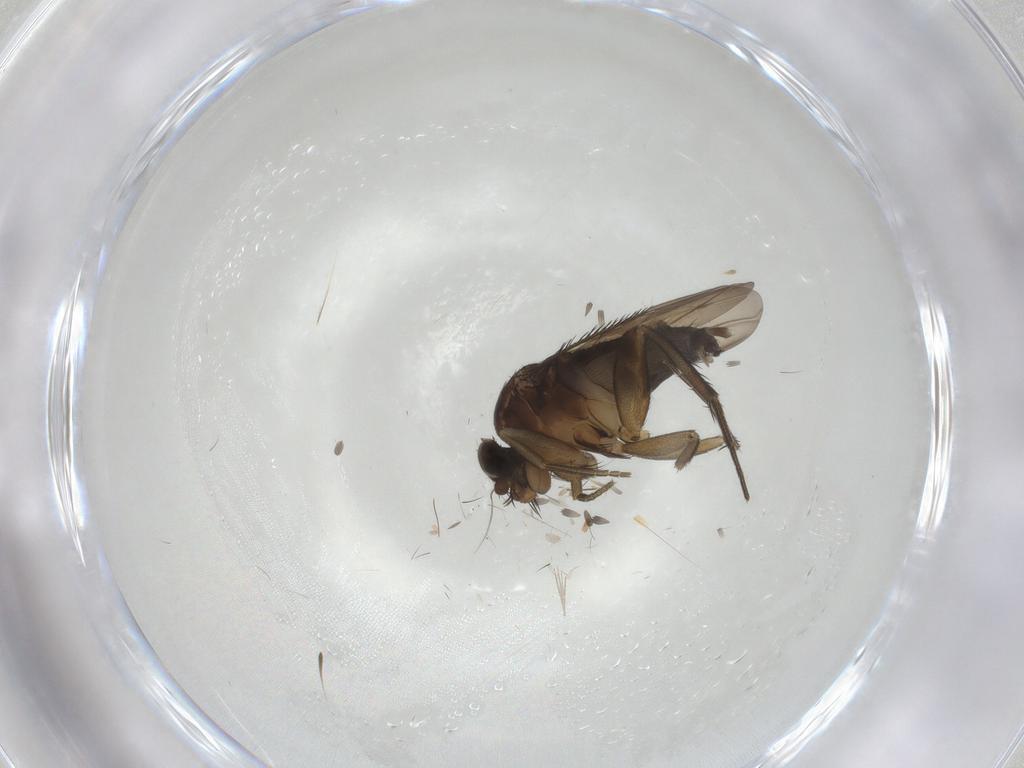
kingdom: Animalia
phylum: Arthropoda
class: Insecta
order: Diptera
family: Phoridae
